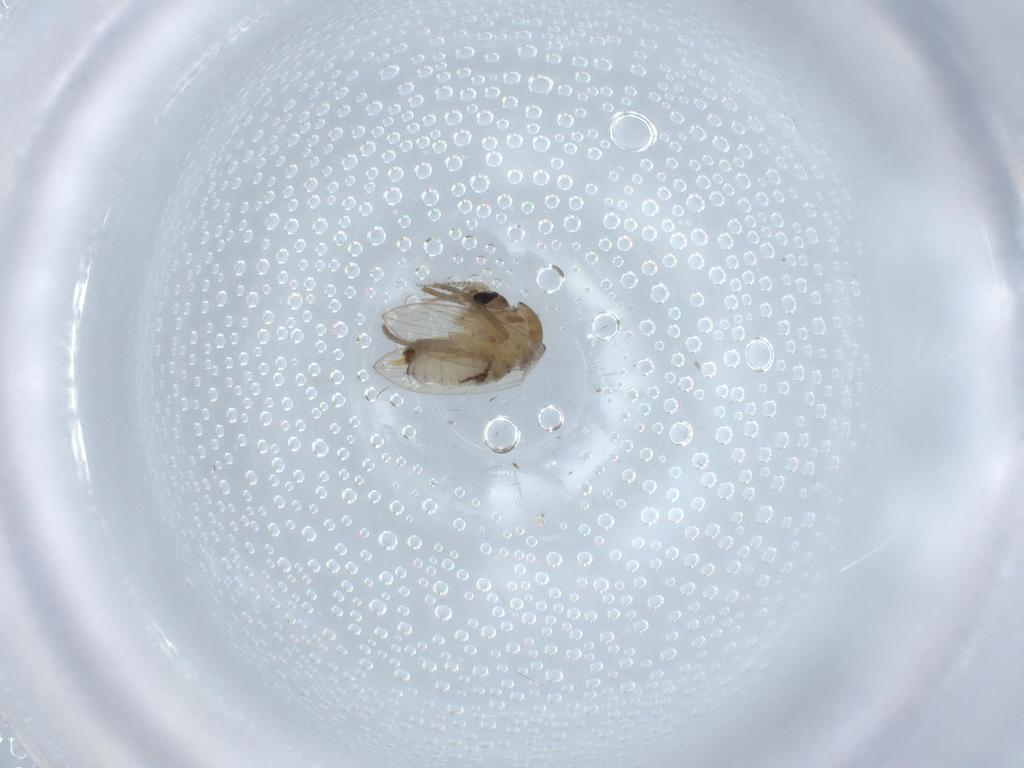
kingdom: Animalia
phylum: Arthropoda
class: Insecta
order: Diptera
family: Psychodidae
